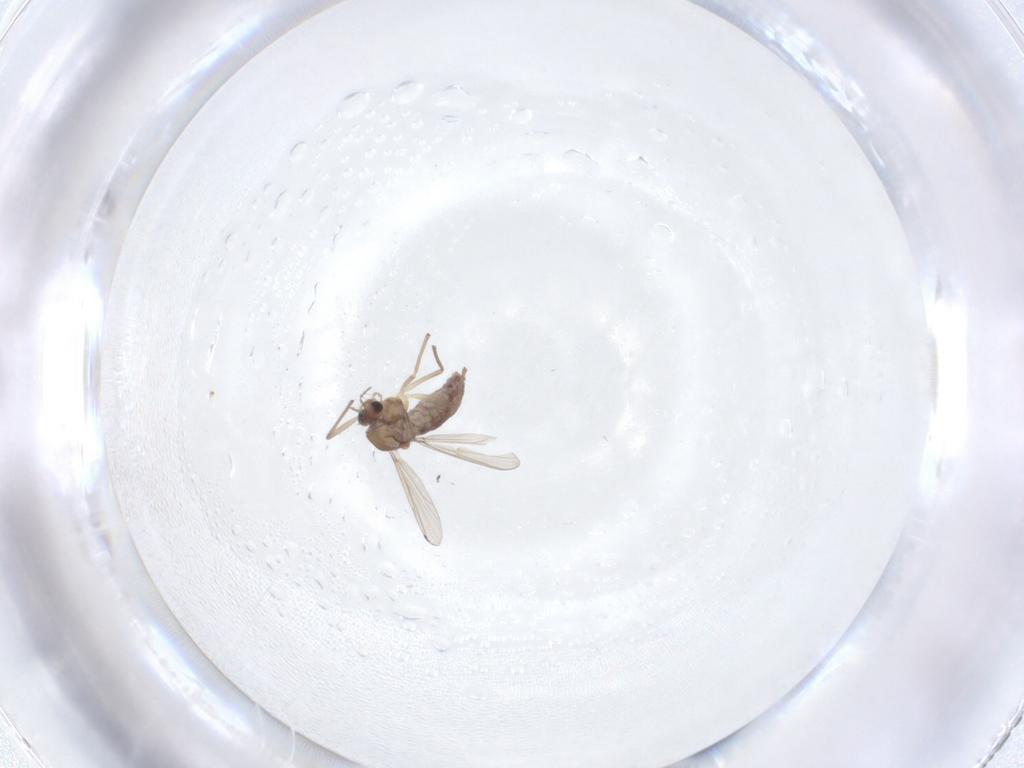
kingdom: Animalia
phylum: Arthropoda
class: Insecta
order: Diptera
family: Chironomidae
